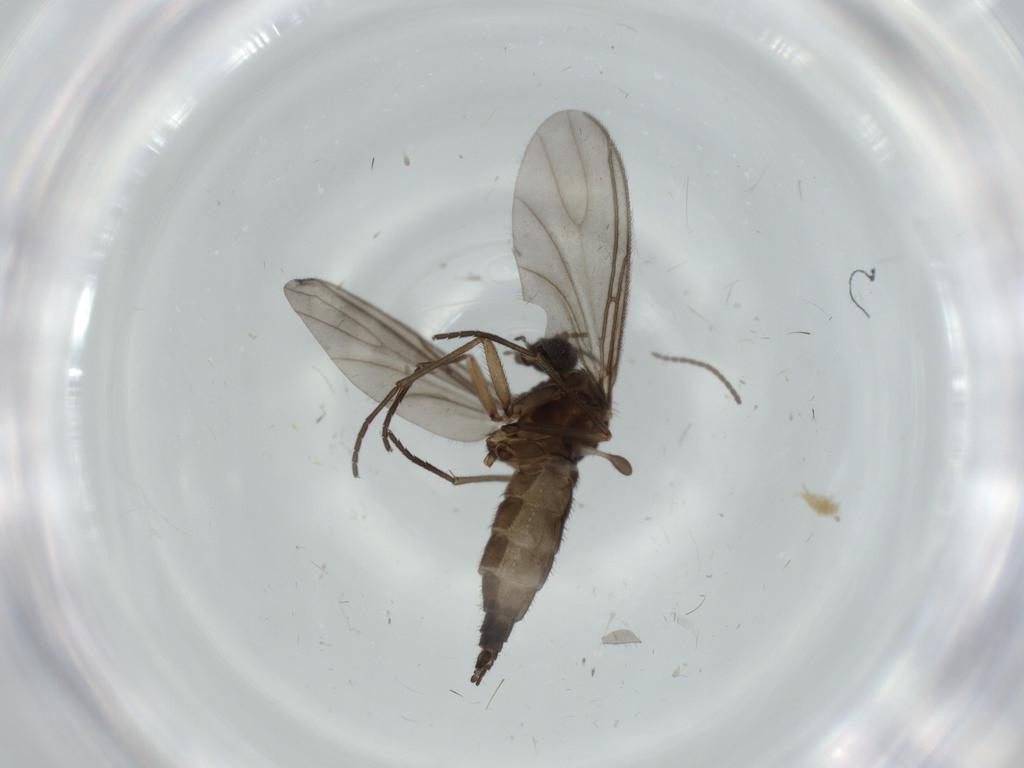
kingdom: Animalia
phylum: Arthropoda
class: Insecta
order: Diptera
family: Sciaridae
